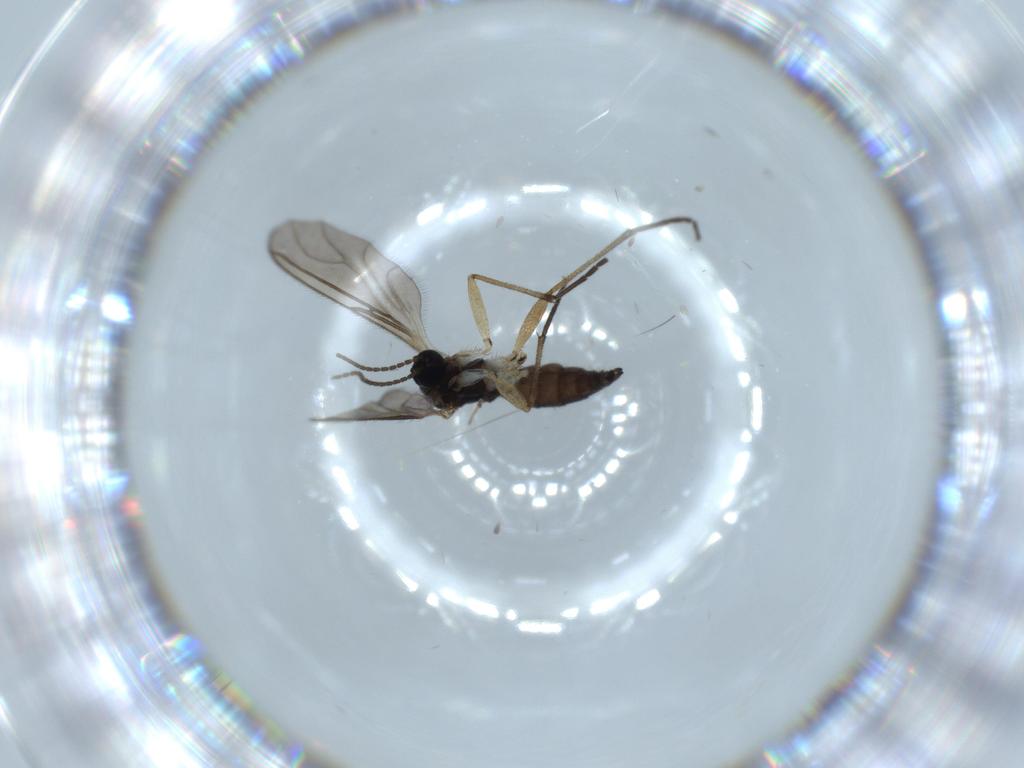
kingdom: Animalia
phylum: Arthropoda
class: Insecta
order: Diptera
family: Sciaridae
